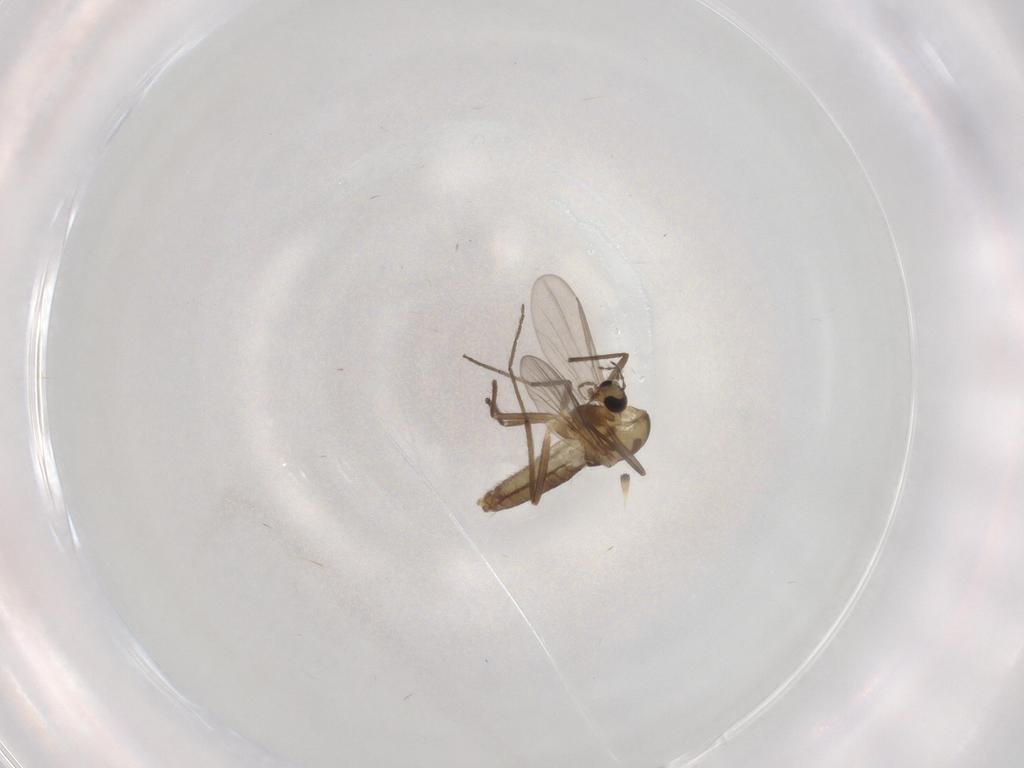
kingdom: Animalia
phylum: Arthropoda
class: Insecta
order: Diptera
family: Chironomidae
